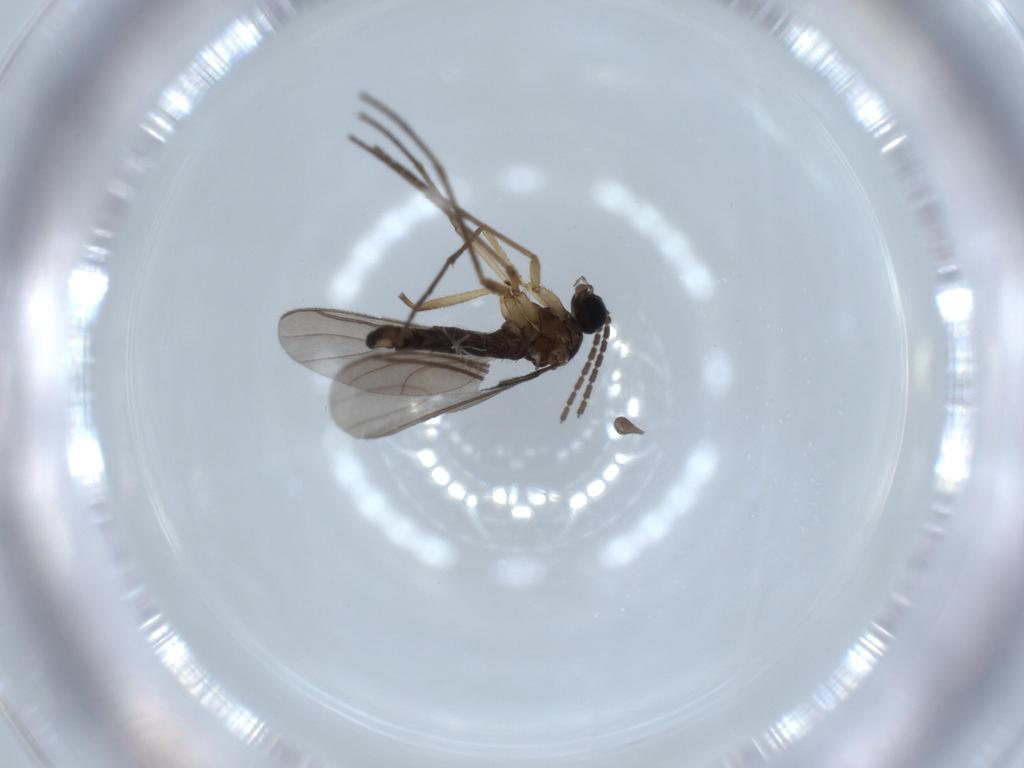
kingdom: Animalia
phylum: Arthropoda
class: Insecta
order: Diptera
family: Sciaridae
